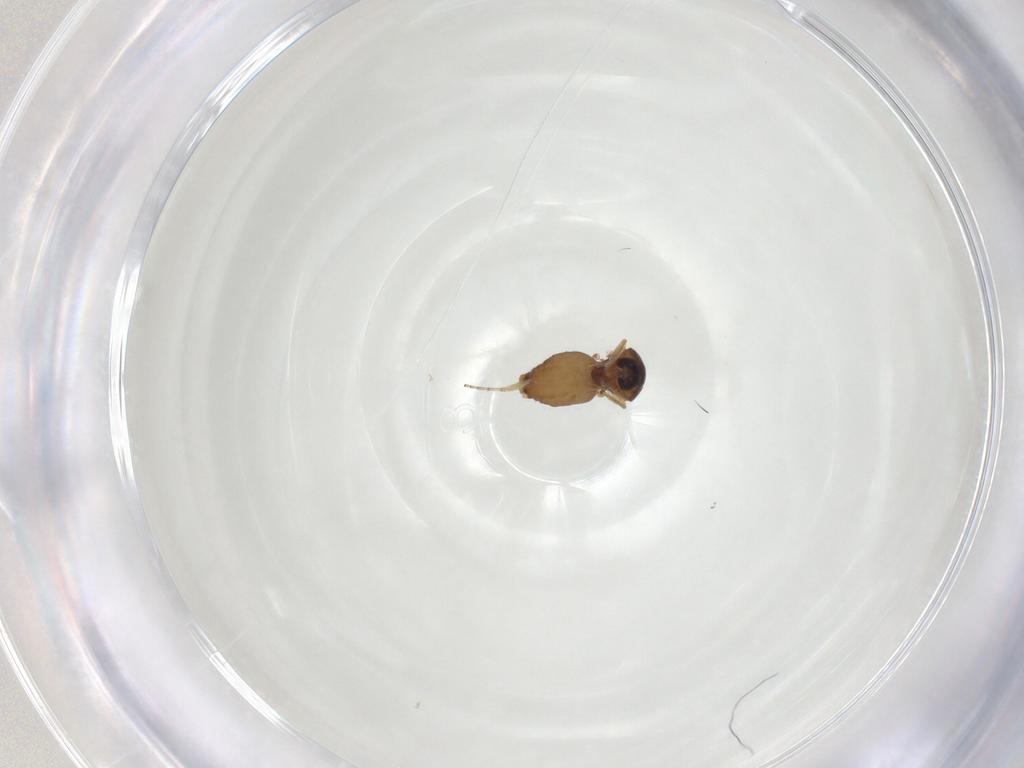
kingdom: Animalia
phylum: Arthropoda
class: Insecta
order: Diptera
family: Ceratopogonidae
